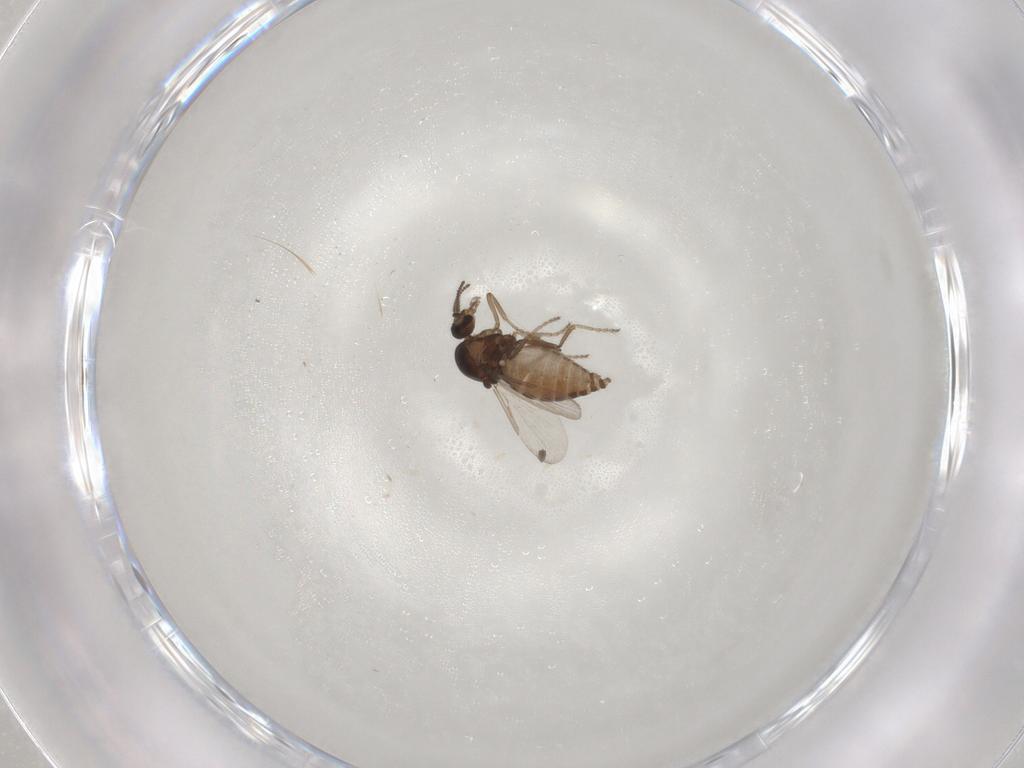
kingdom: Animalia
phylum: Arthropoda
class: Insecta
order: Diptera
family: Ceratopogonidae
